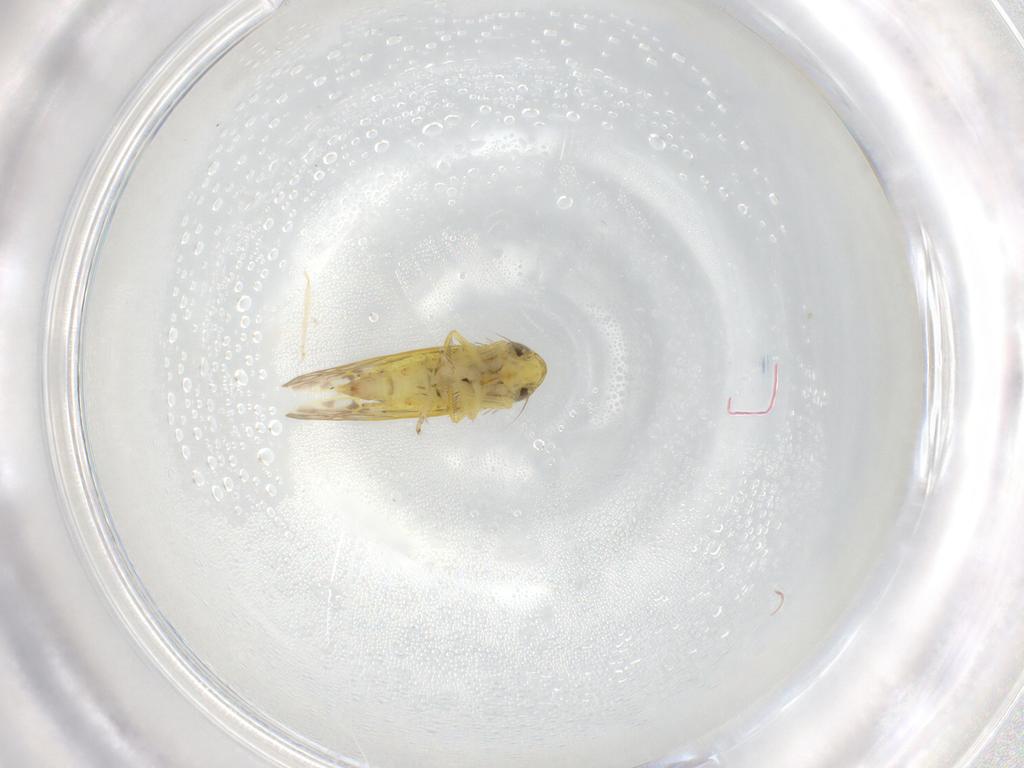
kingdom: Animalia
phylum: Arthropoda
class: Insecta
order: Hemiptera
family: Cicadellidae
